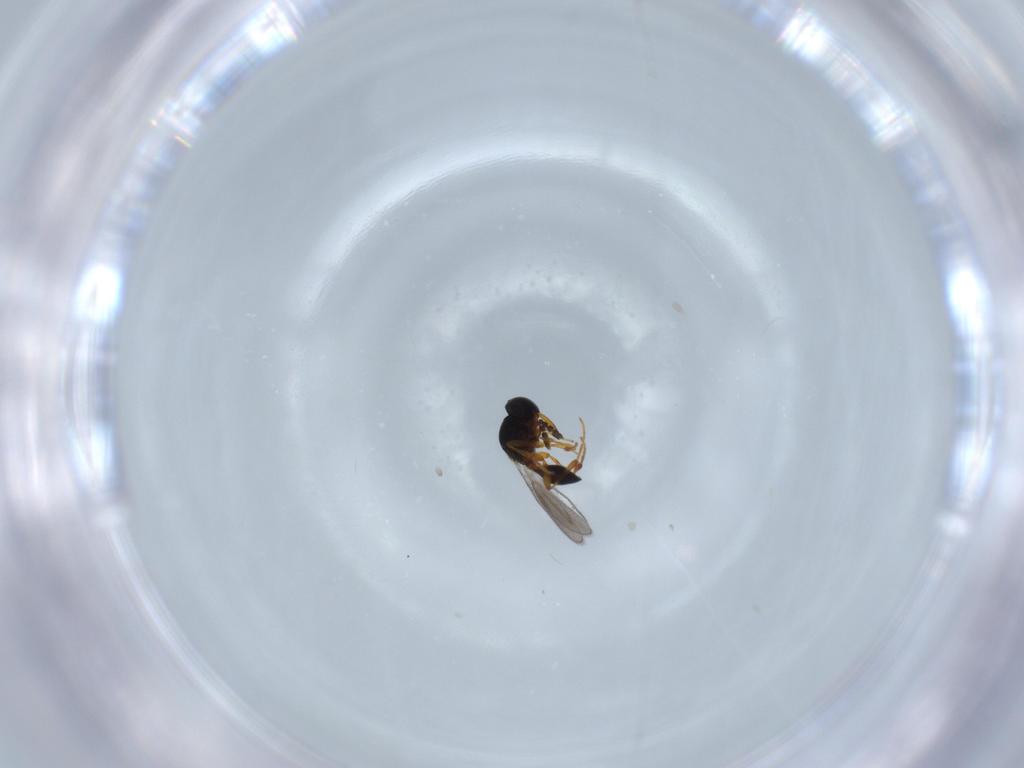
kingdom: Animalia
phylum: Arthropoda
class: Insecta
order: Hymenoptera
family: Platygastridae
